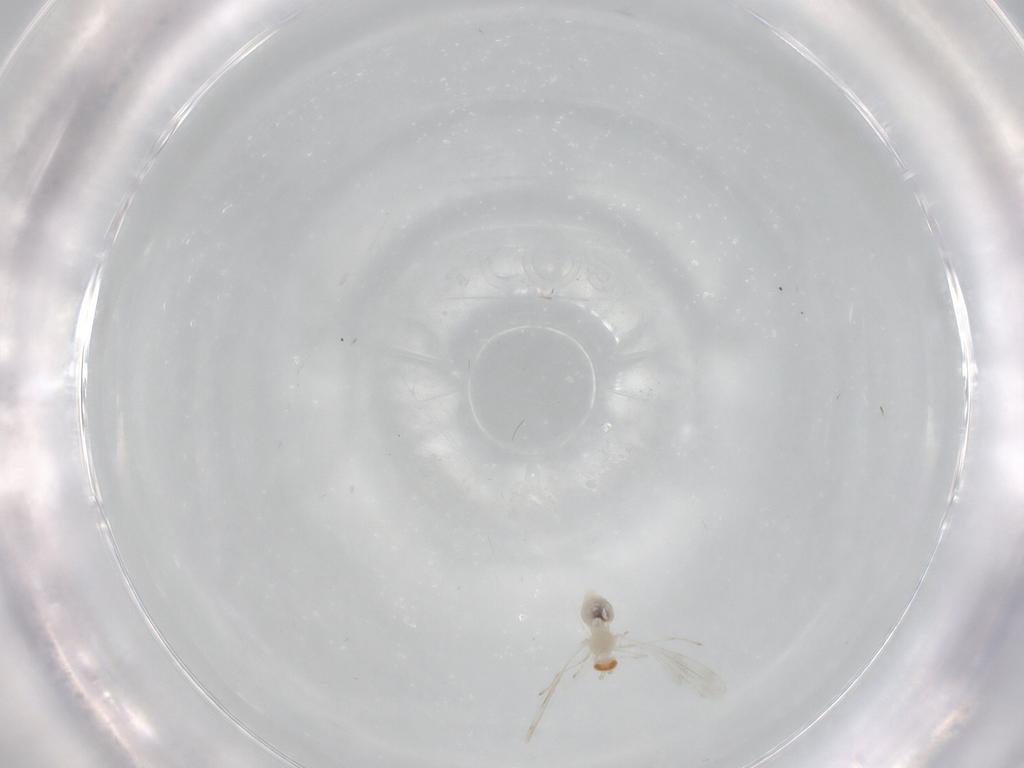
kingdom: Animalia
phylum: Arthropoda
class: Insecta
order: Diptera
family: Cecidomyiidae
